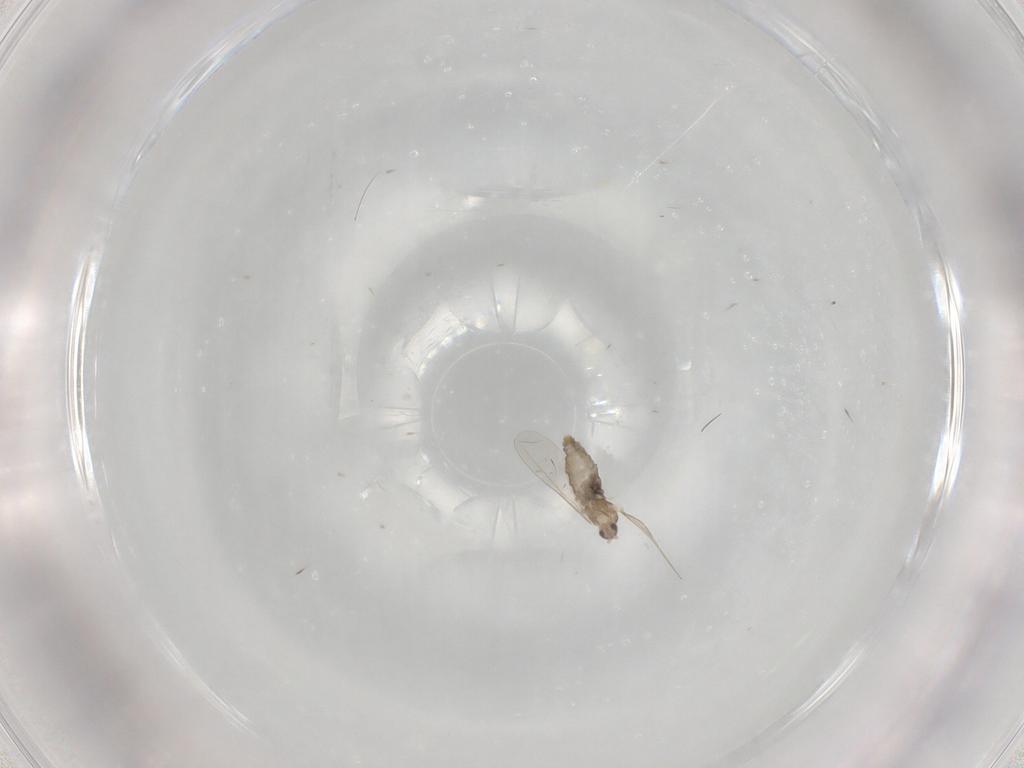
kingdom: Animalia
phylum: Arthropoda
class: Insecta
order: Diptera
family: Cecidomyiidae
